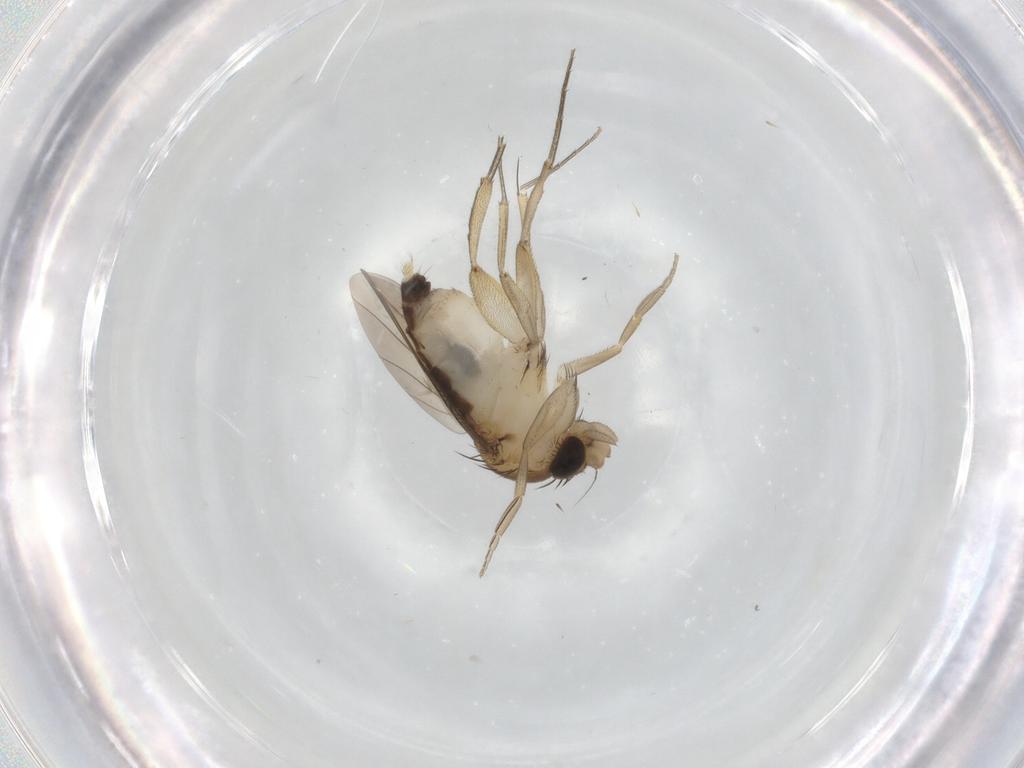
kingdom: Animalia
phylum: Arthropoda
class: Insecta
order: Diptera
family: Phoridae
